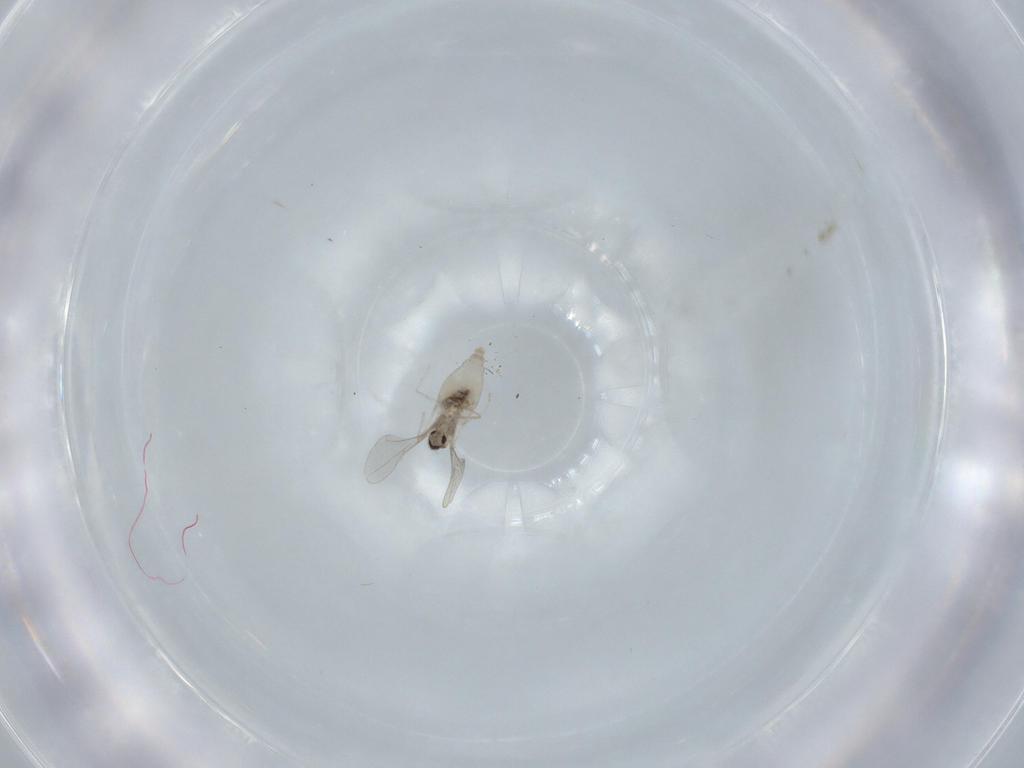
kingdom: Animalia
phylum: Arthropoda
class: Insecta
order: Diptera
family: Cecidomyiidae
